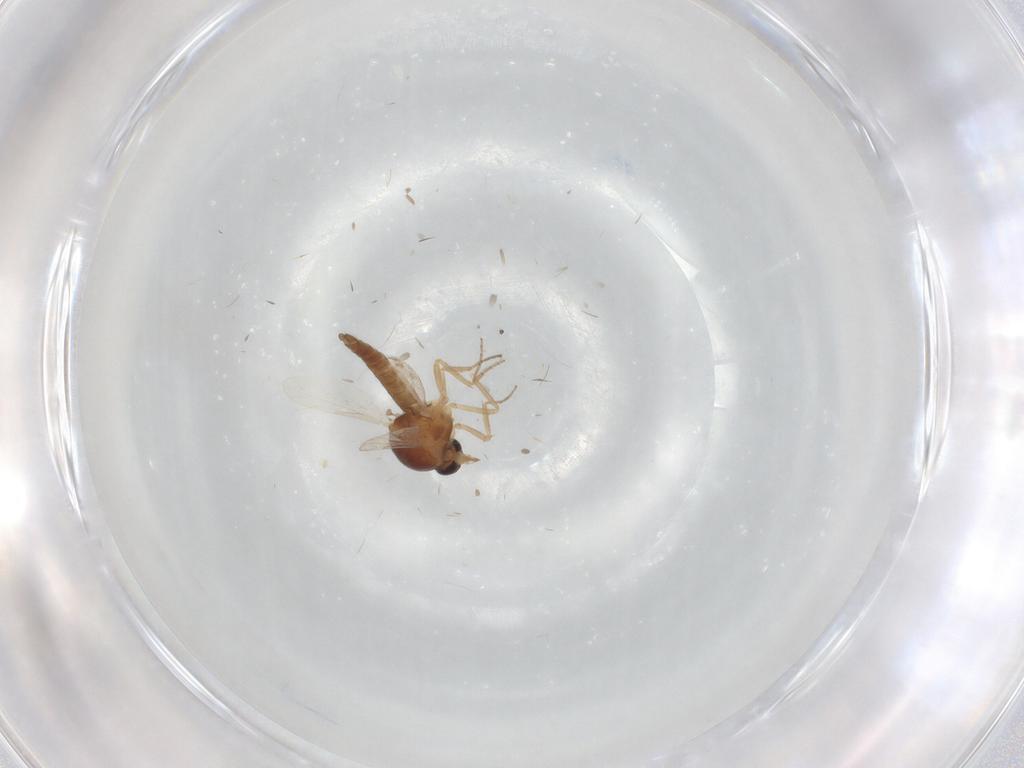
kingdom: Animalia
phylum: Arthropoda
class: Insecta
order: Diptera
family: Ceratopogonidae
